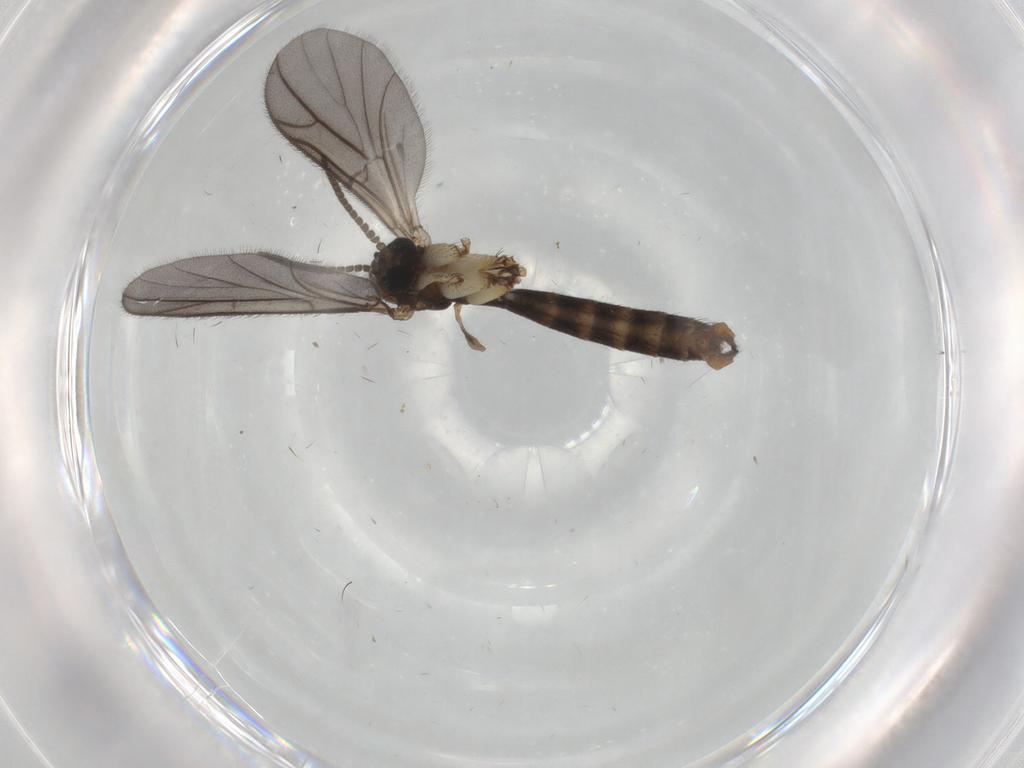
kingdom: Animalia
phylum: Arthropoda
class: Insecta
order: Diptera
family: Ditomyiidae
